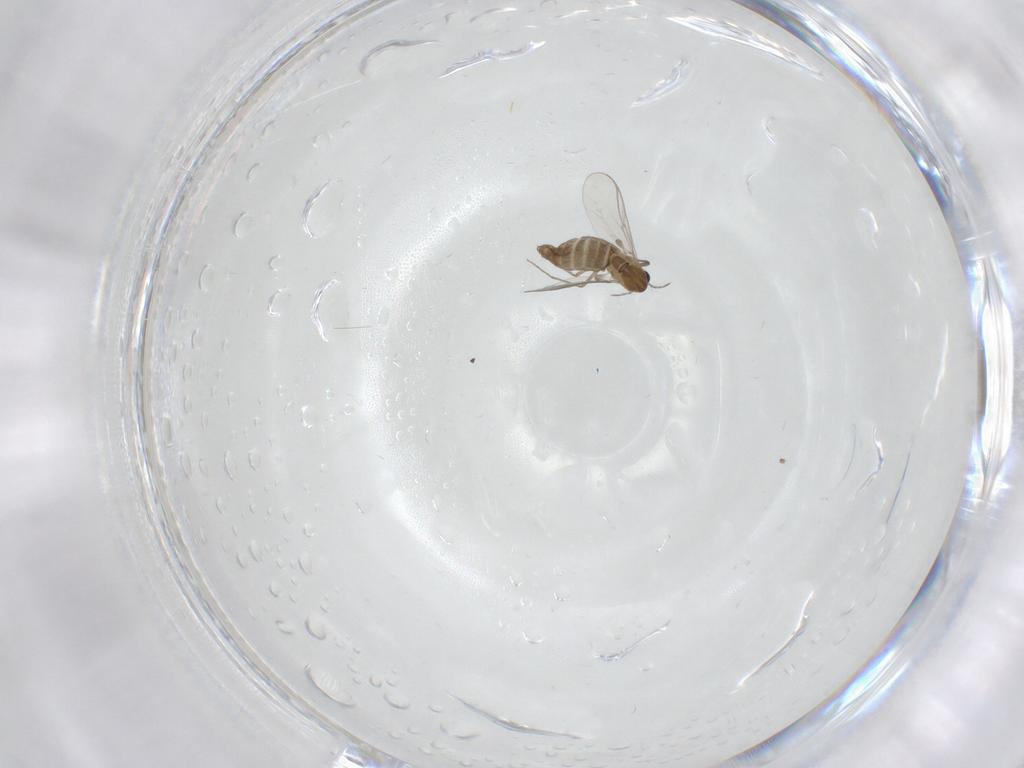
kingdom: Animalia
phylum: Arthropoda
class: Insecta
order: Diptera
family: Chironomidae
